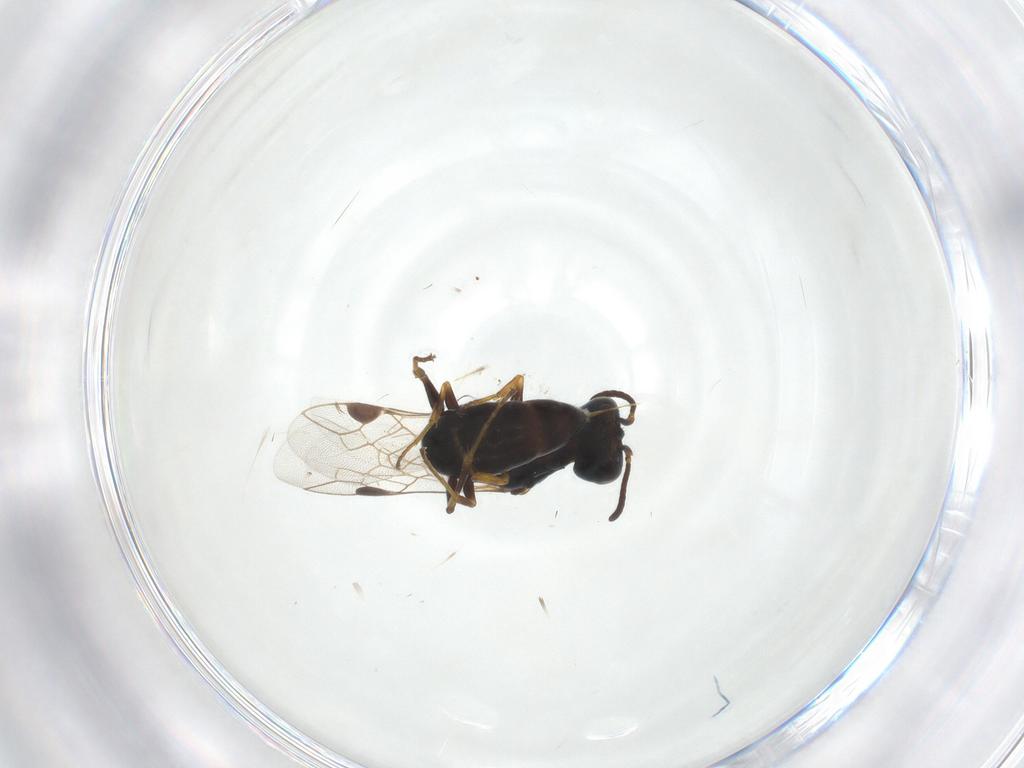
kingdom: Animalia
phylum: Arthropoda
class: Insecta
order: Hymenoptera
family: Pemphredonidae
